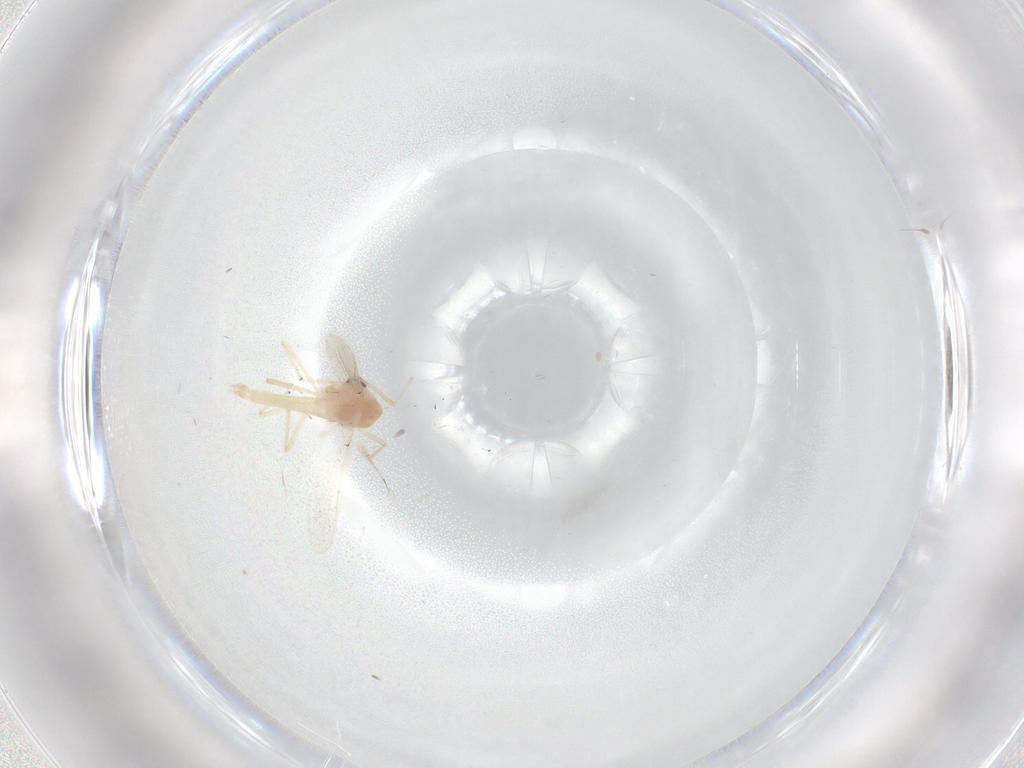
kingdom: Animalia
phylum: Arthropoda
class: Insecta
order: Diptera
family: Chironomidae
